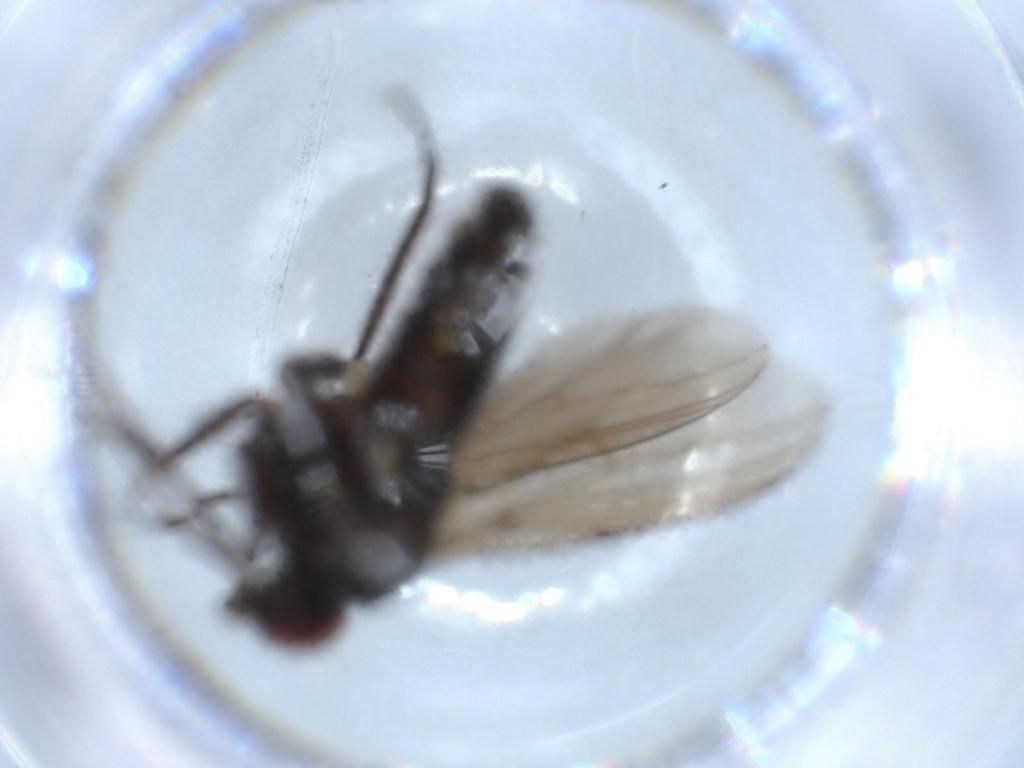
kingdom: Animalia
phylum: Arthropoda
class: Insecta
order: Diptera
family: Dolichopodidae
